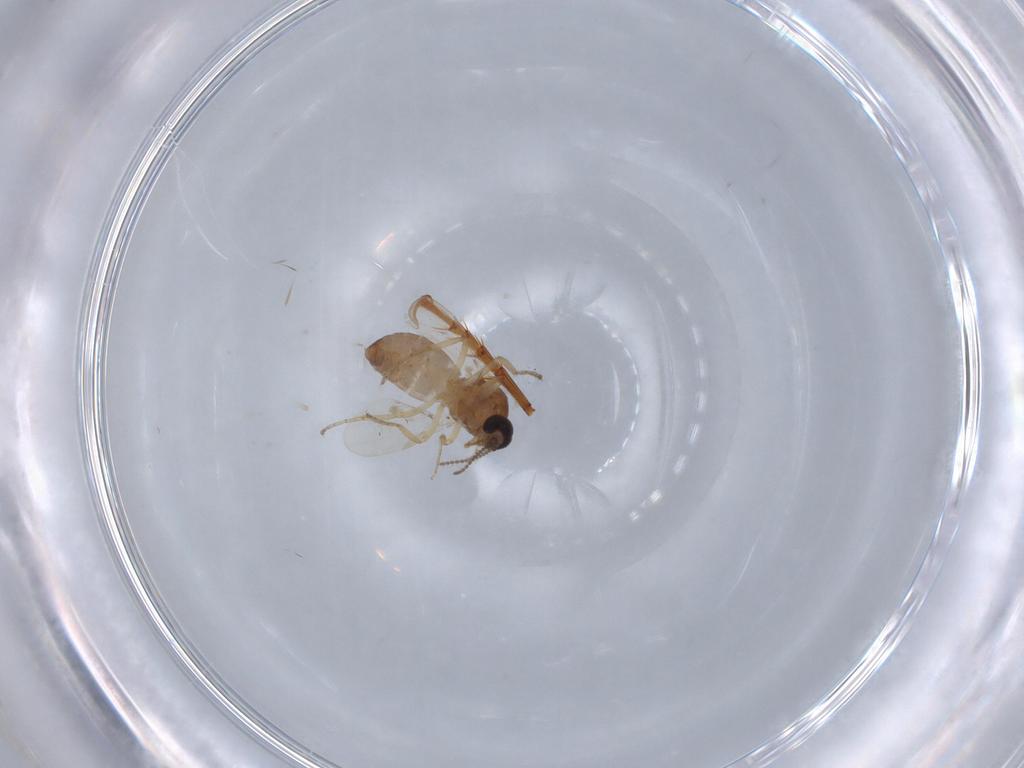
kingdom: Animalia
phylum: Arthropoda
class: Insecta
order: Diptera
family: Ceratopogonidae
